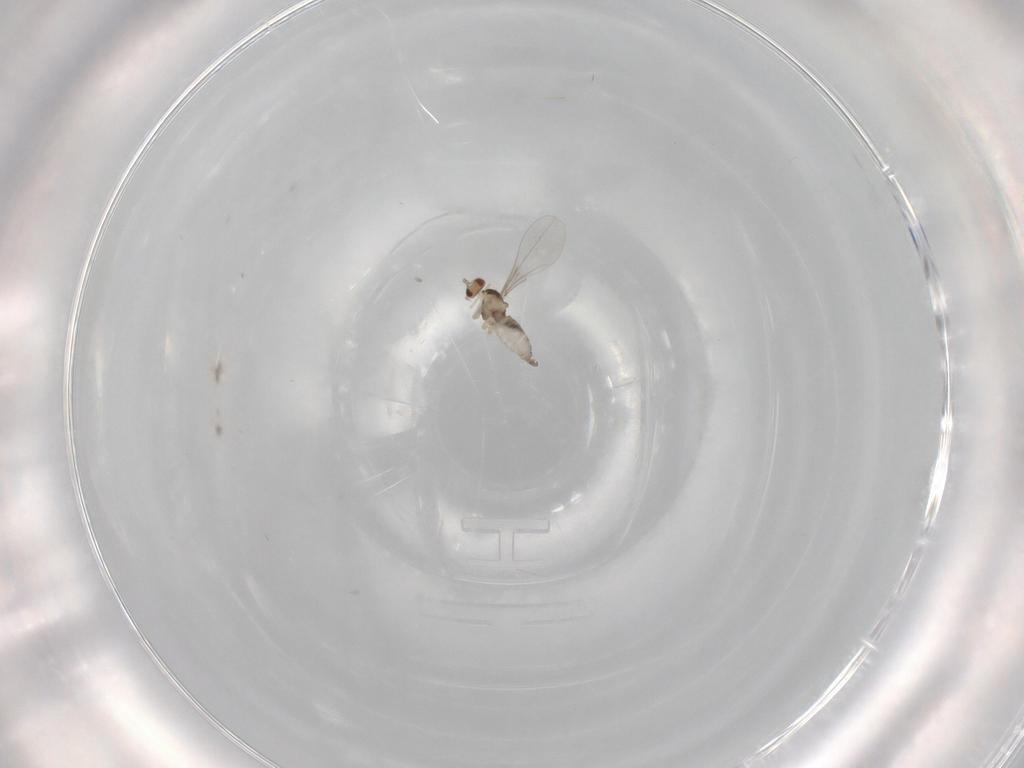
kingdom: Animalia
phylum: Arthropoda
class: Insecta
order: Diptera
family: Cecidomyiidae
